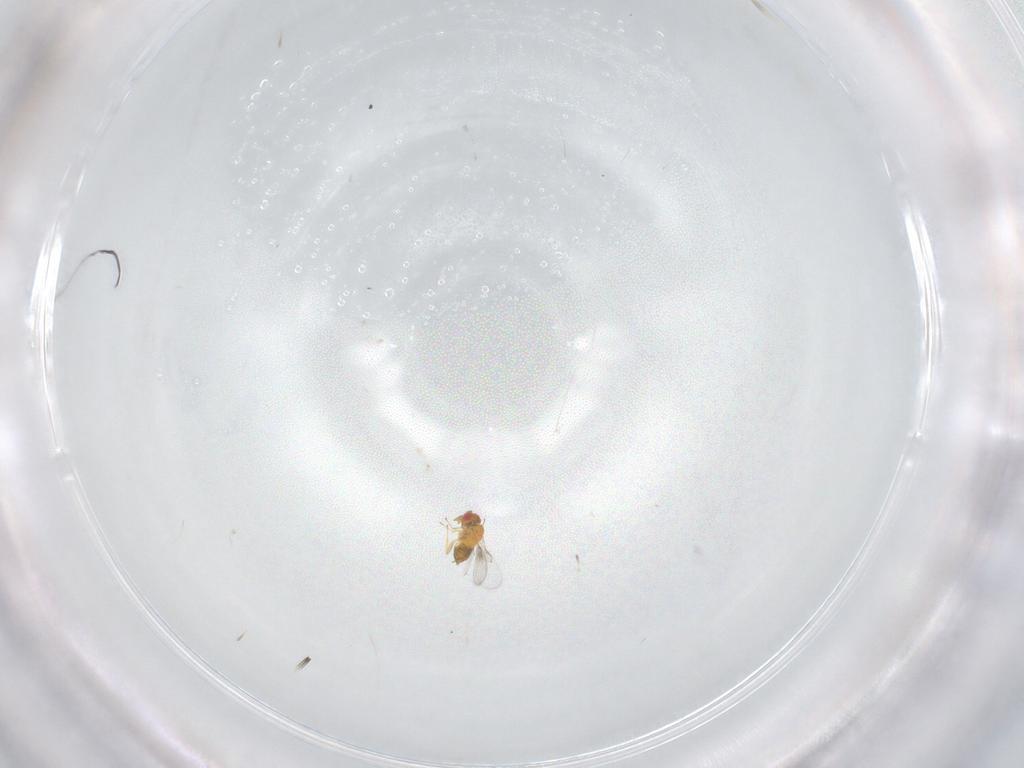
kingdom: Animalia
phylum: Arthropoda
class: Insecta
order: Hymenoptera
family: Trichogrammatidae
